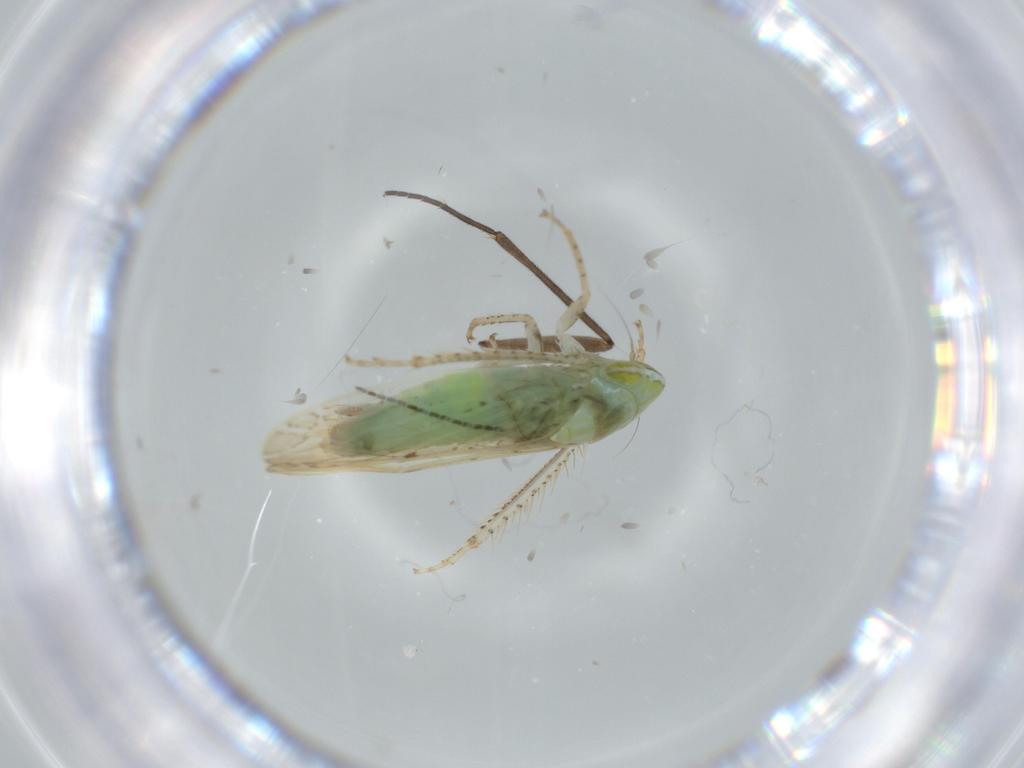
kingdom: Animalia
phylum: Arthropoda
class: Insecta
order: Hemiptera
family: Cicadellidae
